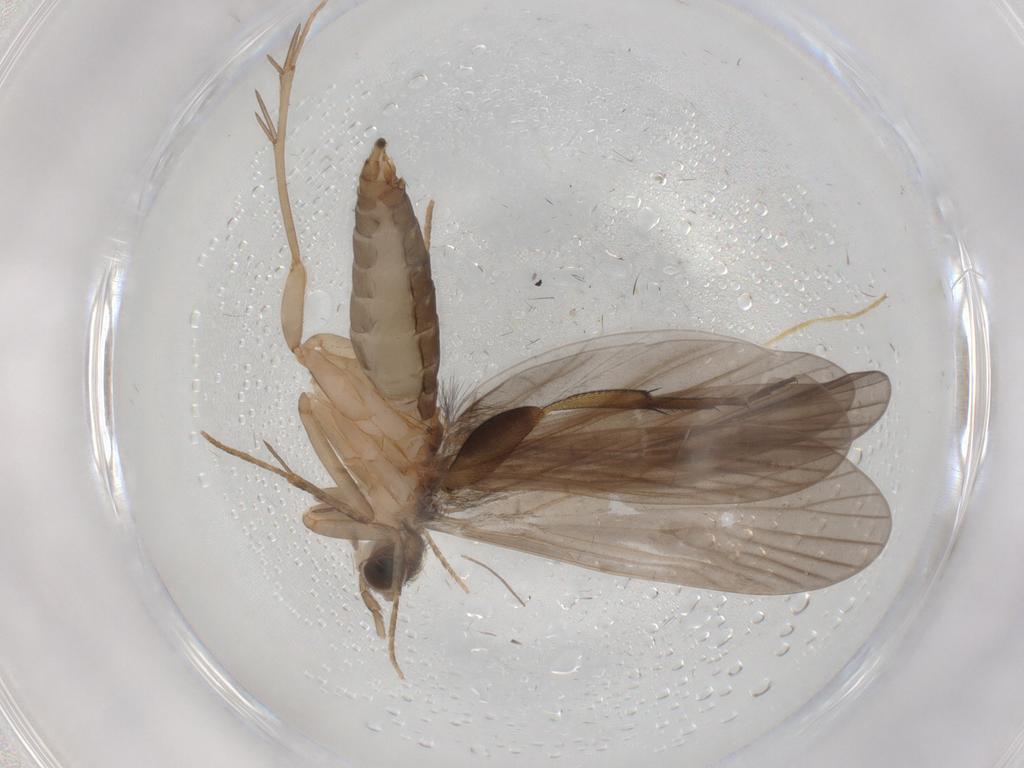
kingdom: Animalia
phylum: Arthropoda
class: Insecta
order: Trichoptera
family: Philopotamidae
